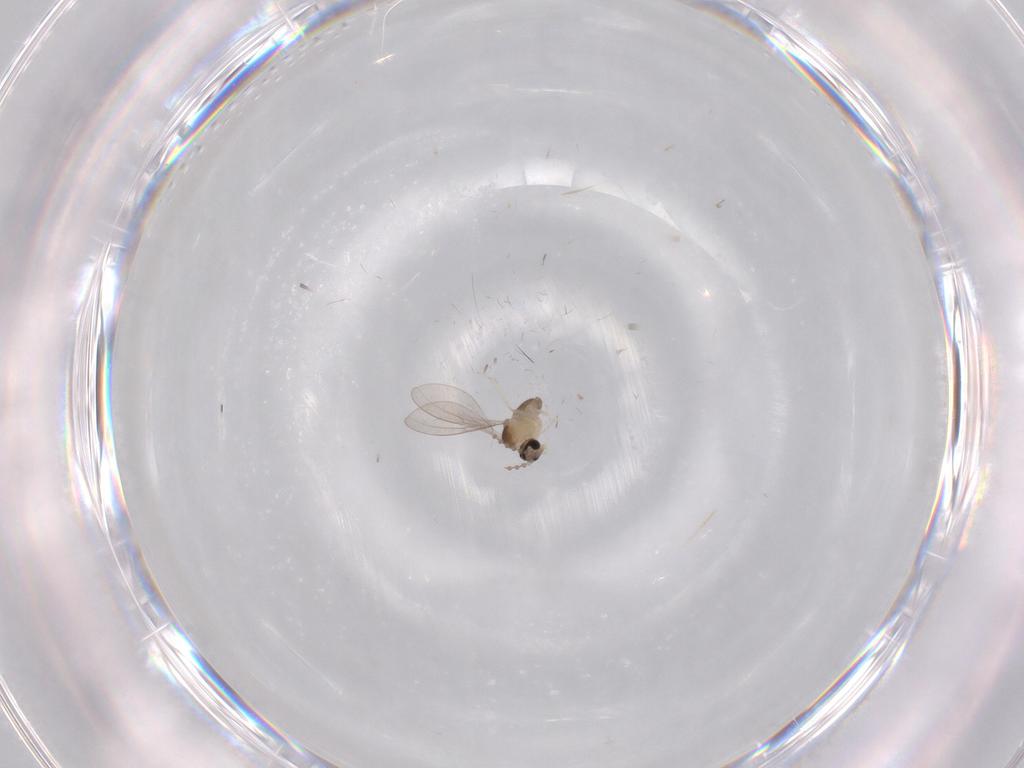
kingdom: Animalia
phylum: Arthropoda
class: Insecta
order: Diptera
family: Cecidomyiidae
